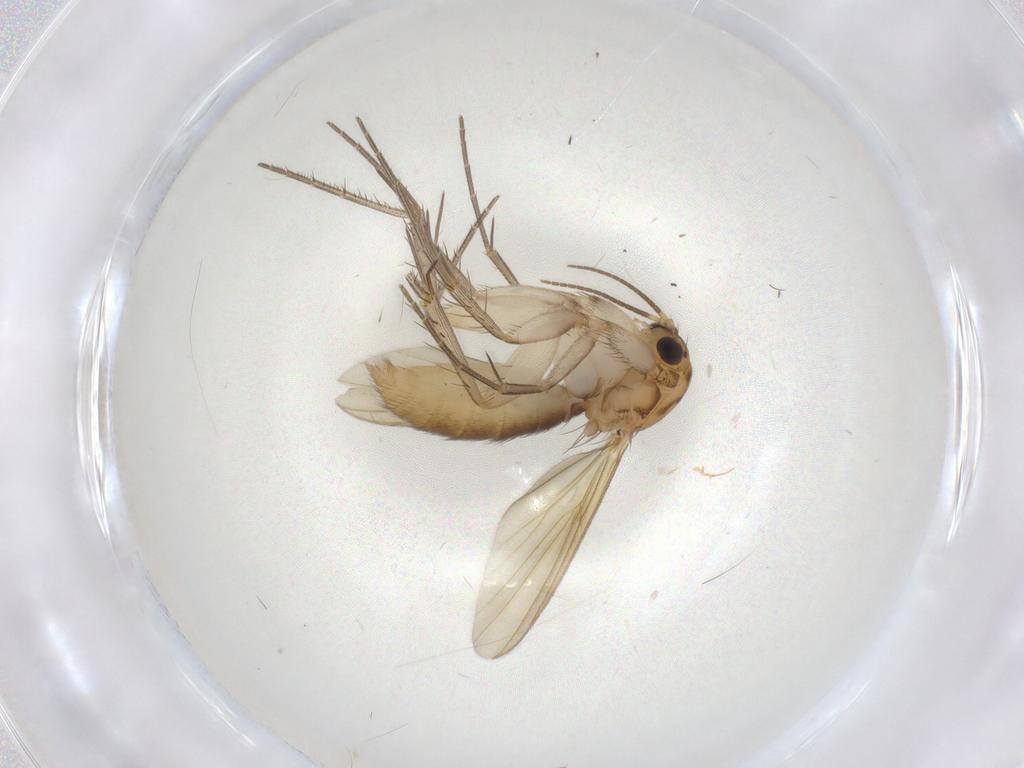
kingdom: Animalia
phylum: Arthropoda
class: Insecta
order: Diptera
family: Mycetophilidae
